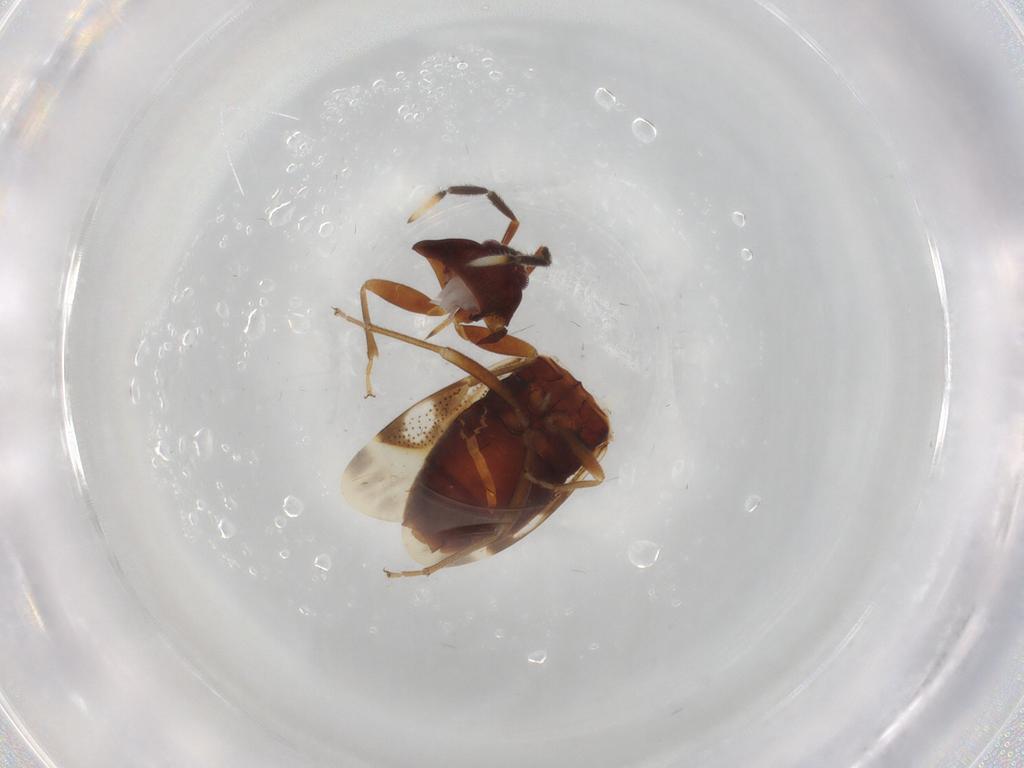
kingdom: Animalia
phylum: Arthropoda
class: Insecta
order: Hemiptera
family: Rhyparochromidae
